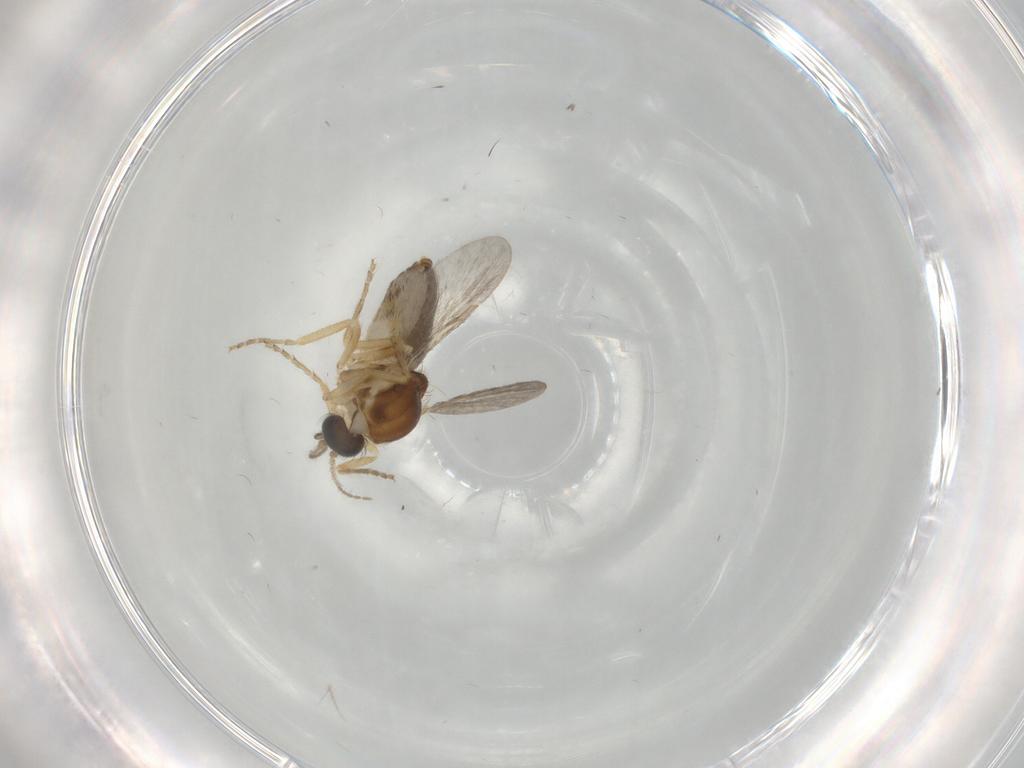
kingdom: Animalia
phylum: Arthropoda
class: Insecta
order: Diptera
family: Ceratopogonidae
